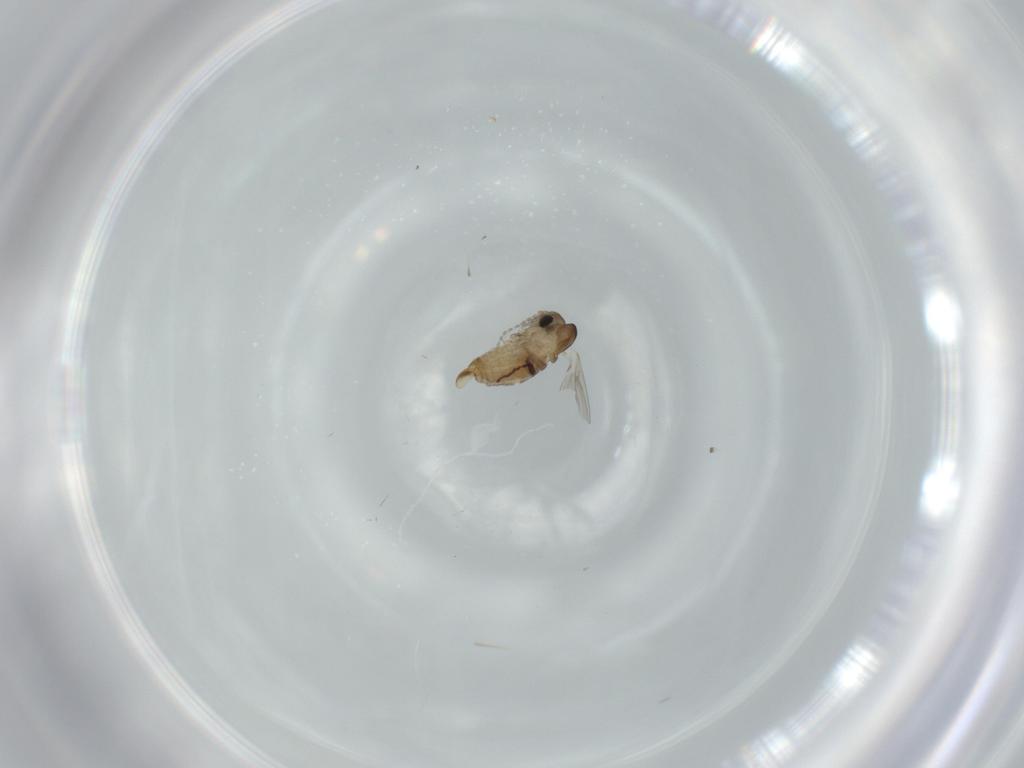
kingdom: Animalia
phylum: Arthropoda
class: Insecta
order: Diptera
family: Psychodidae
